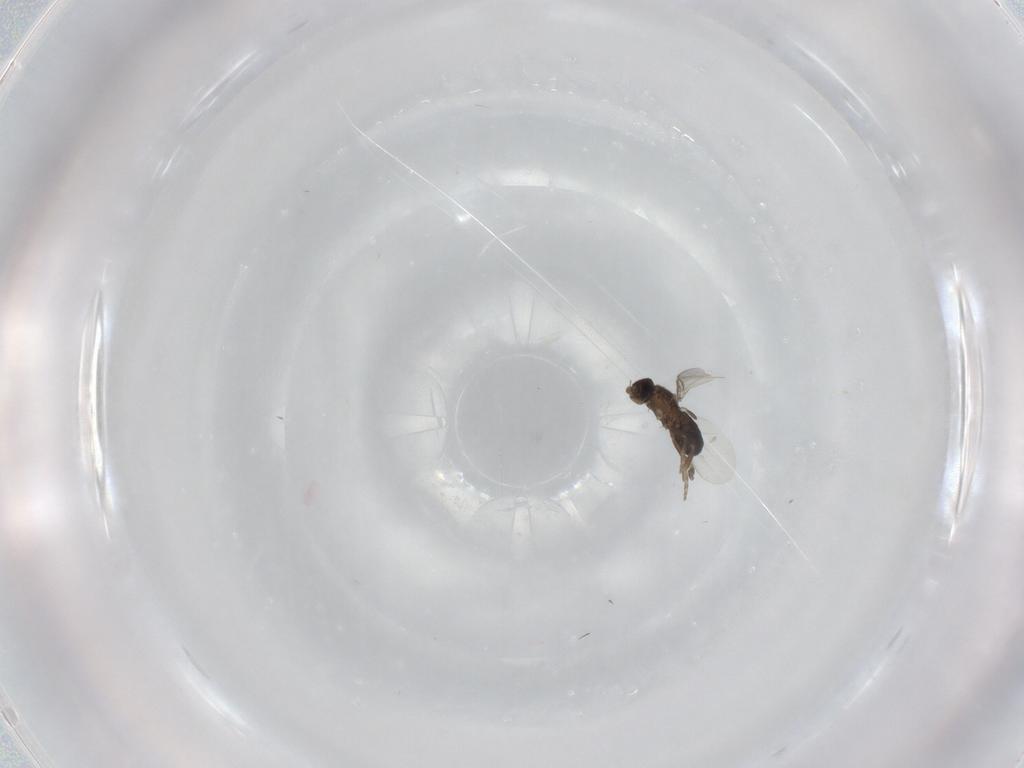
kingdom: Animalia
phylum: Arthropoda
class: Insecta
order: Diptera
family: Phoridae
